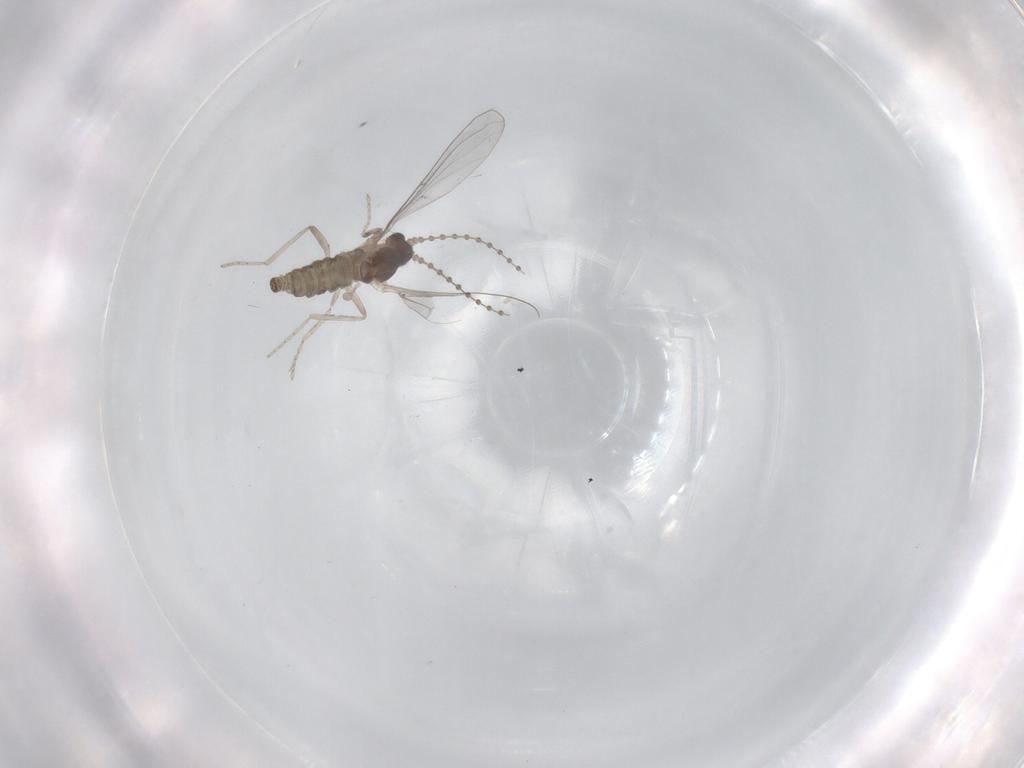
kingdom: Animalia
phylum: Arthropoda
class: Insecta
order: Diptera
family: Cecidomyiidae
